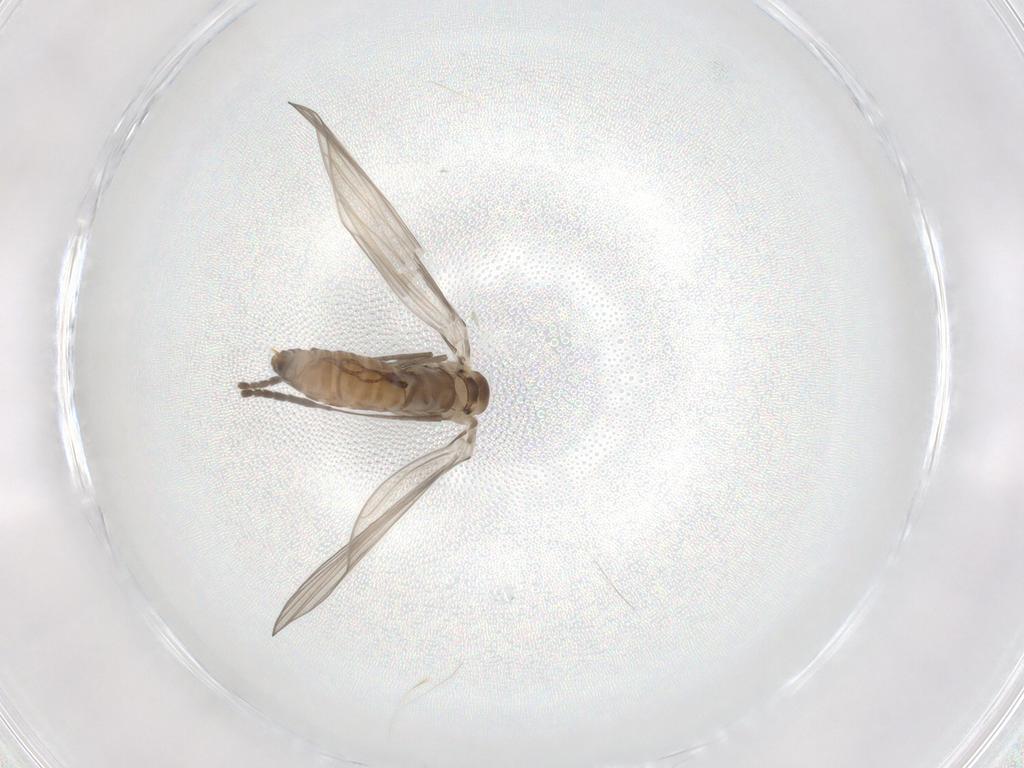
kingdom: Animalia
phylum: Arthropoda
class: Insecta
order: Diptera
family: Psychodidae
